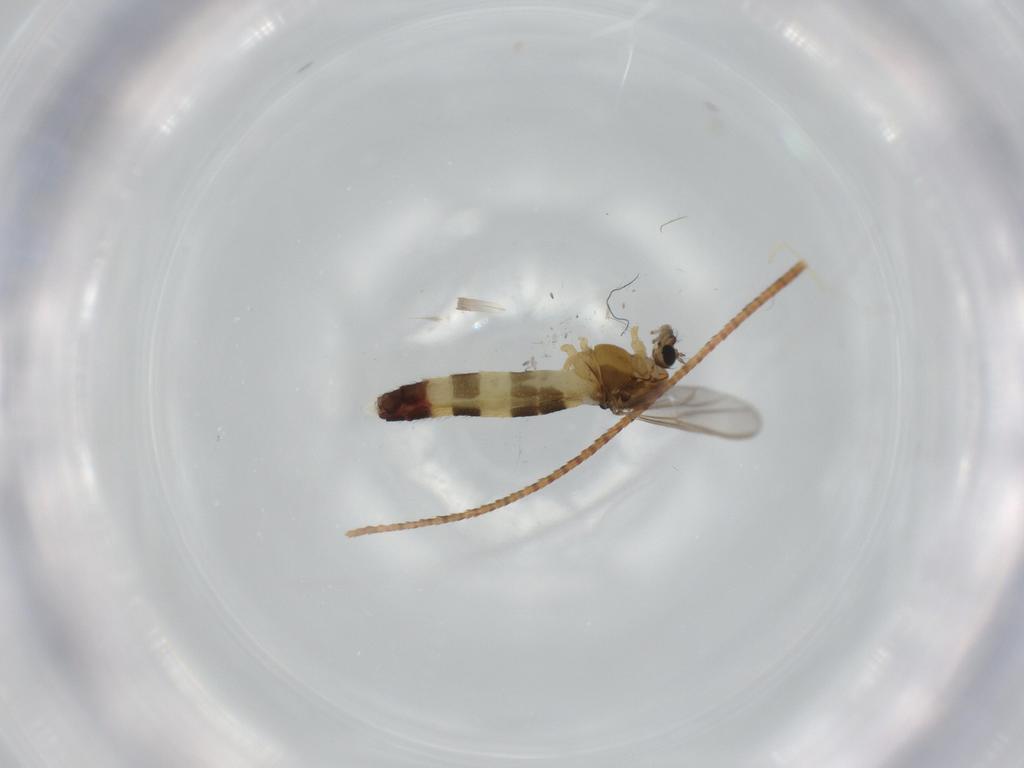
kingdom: Animalia
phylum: Arthropoda
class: Insecta
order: Diptera
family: Chironomidae
